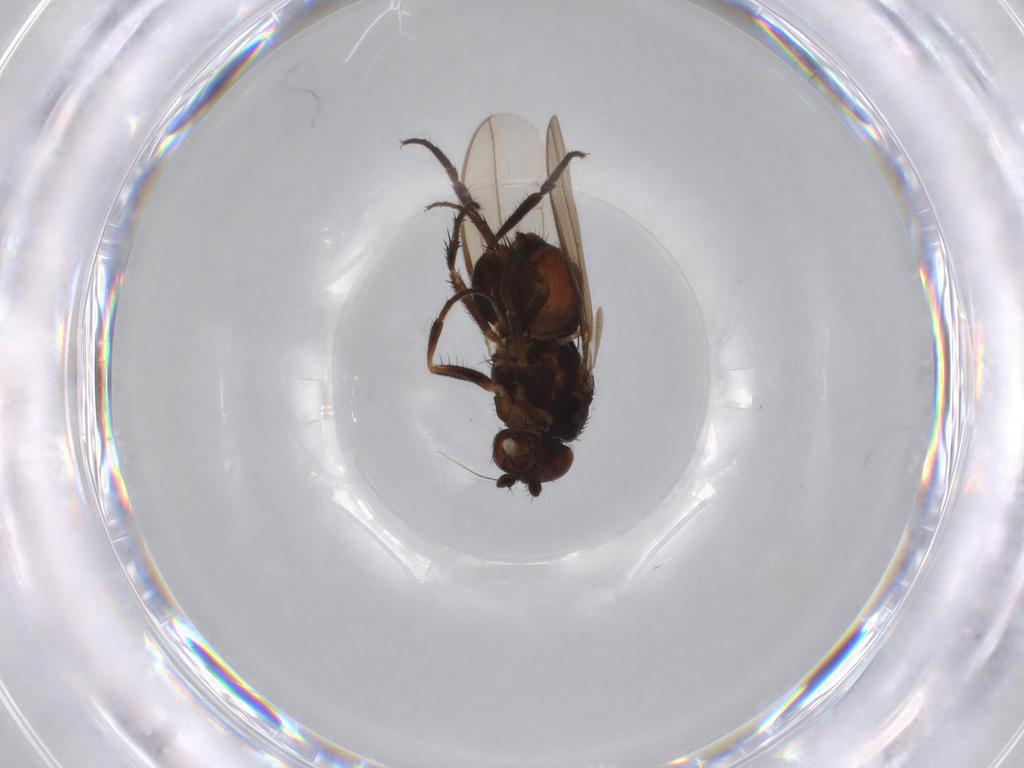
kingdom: Animalia
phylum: Arthropoda
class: Insecta
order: Diptera
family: Sphaeroceridae
